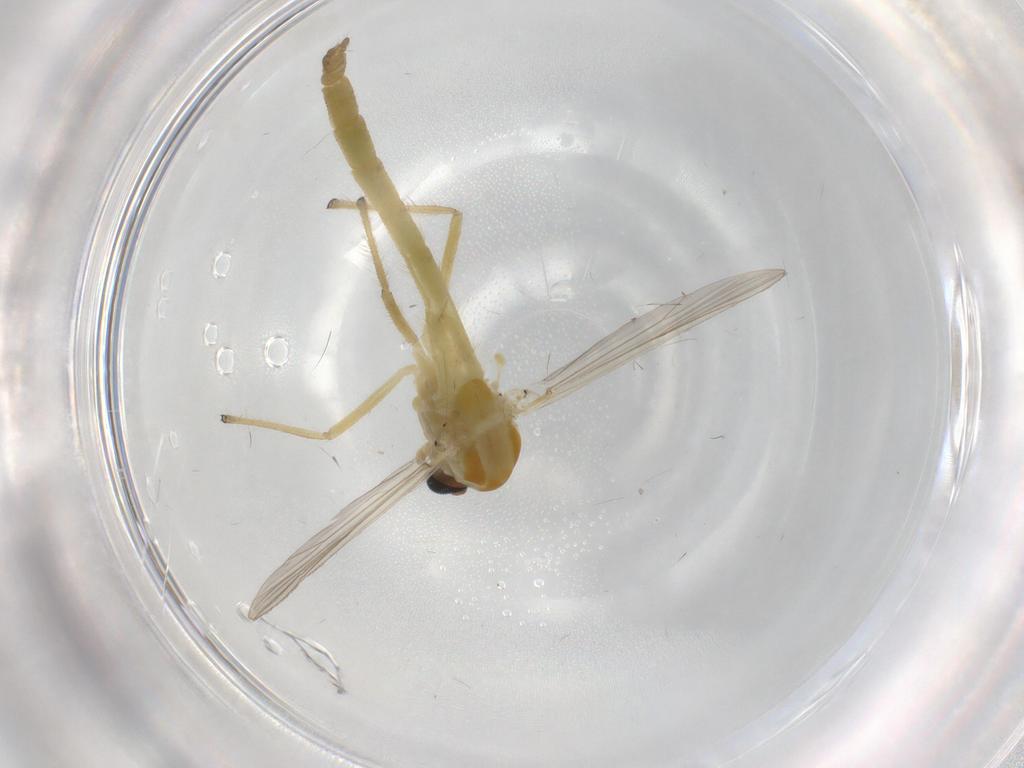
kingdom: Animalia
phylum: Arthropoda
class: Insecta
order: Diptera
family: Chironomidae
